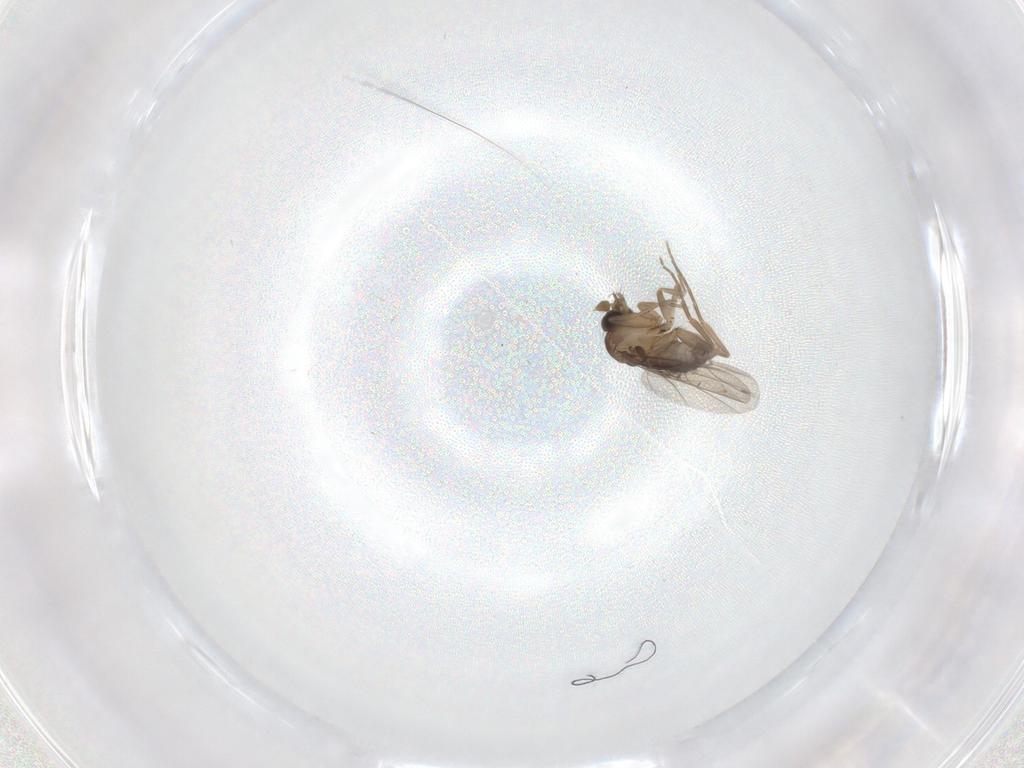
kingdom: Animalia
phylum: Arthropoda
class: Insecta
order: Diptera
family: Phoridae
